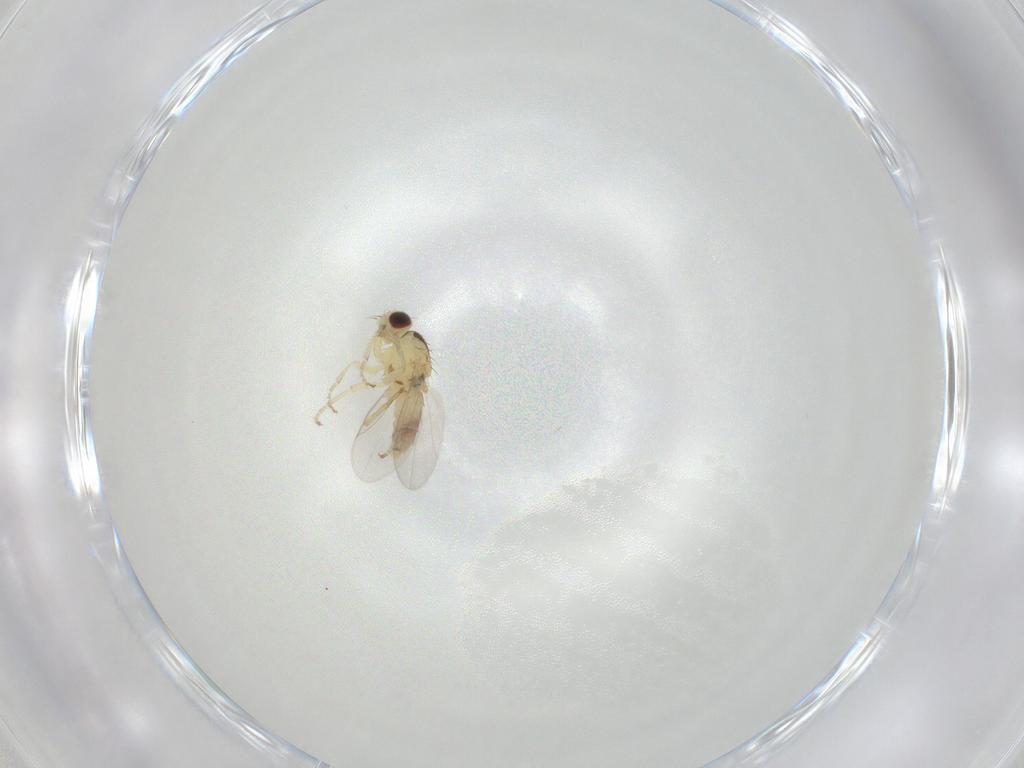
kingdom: Animalia
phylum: Arthropoda
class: Insecta
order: Diptera
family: Agromyzidae
